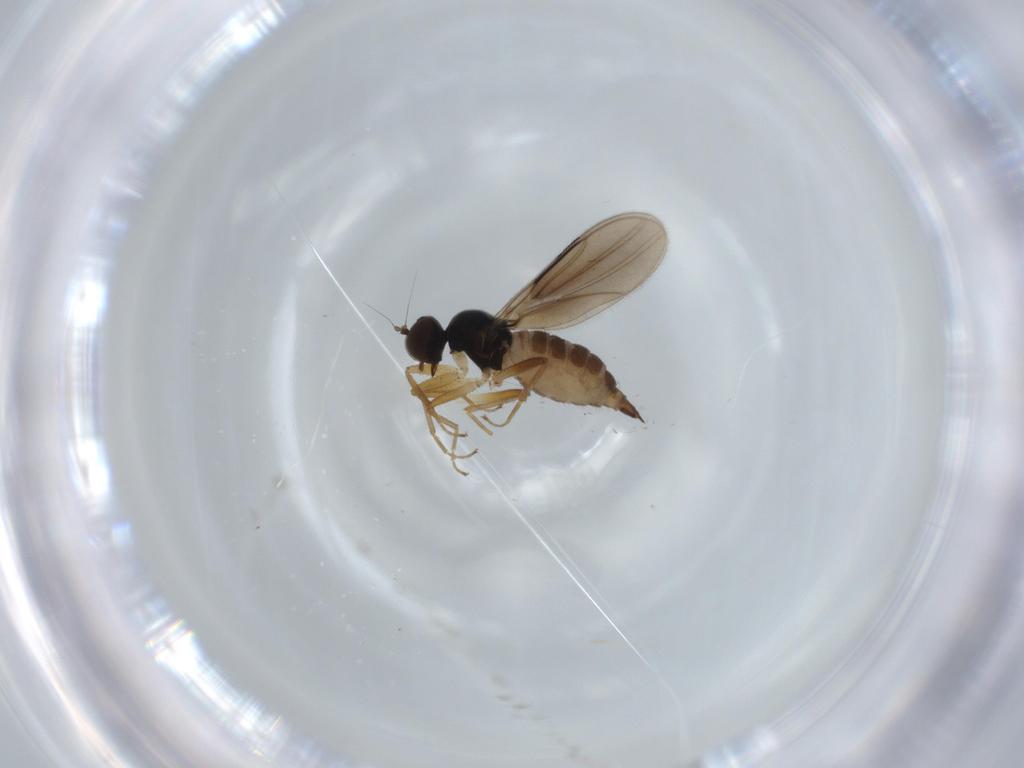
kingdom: Animalia
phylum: Arthropoda
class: Insecta
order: Diptera
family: Hybotidae
